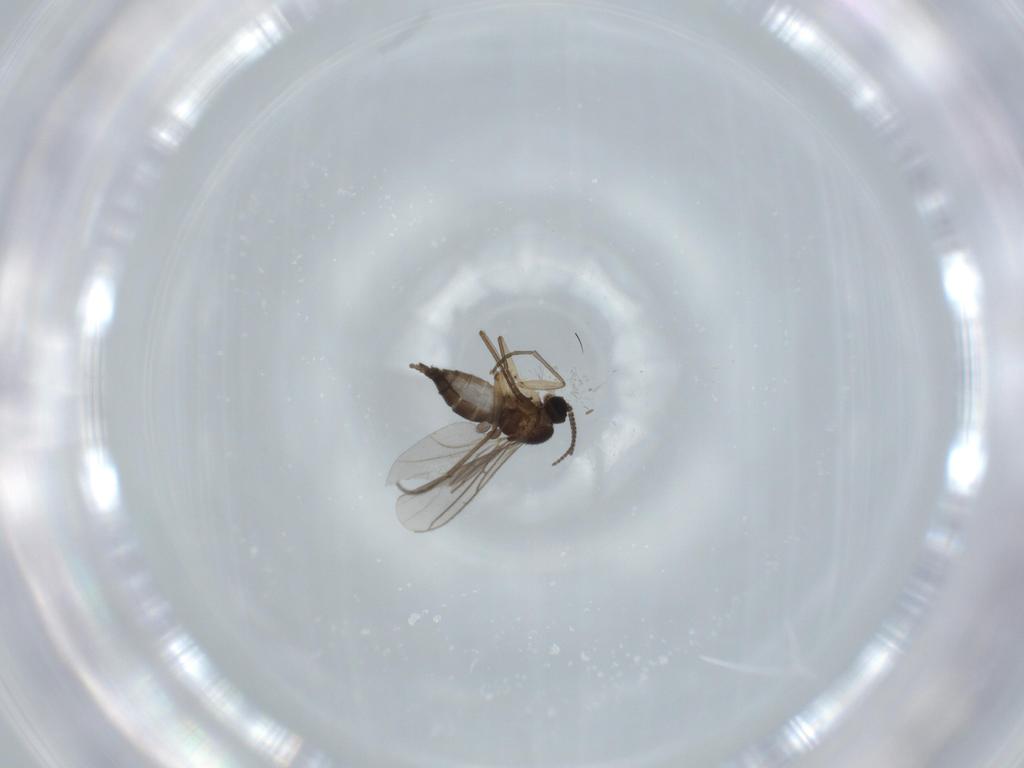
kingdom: Animalia
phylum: Arthropoda
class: Insecta
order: Diptera
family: Sciaridae
